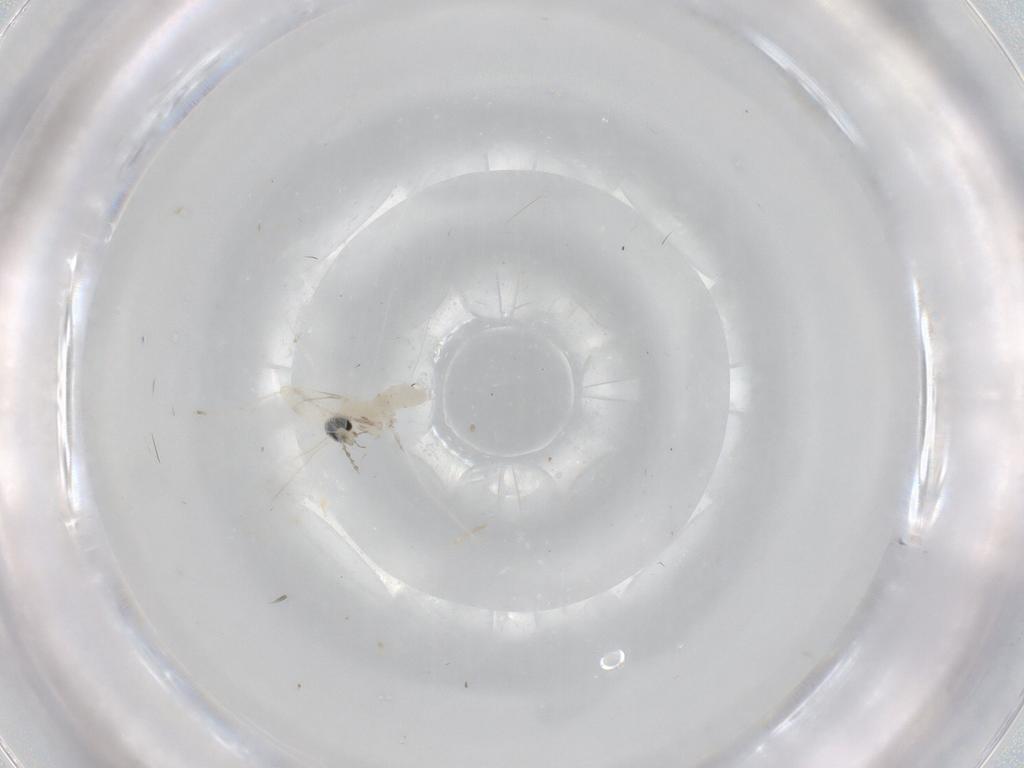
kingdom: Animalia
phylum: Arthropoda
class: Insecta
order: Diptera
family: Cecidomyiidae
